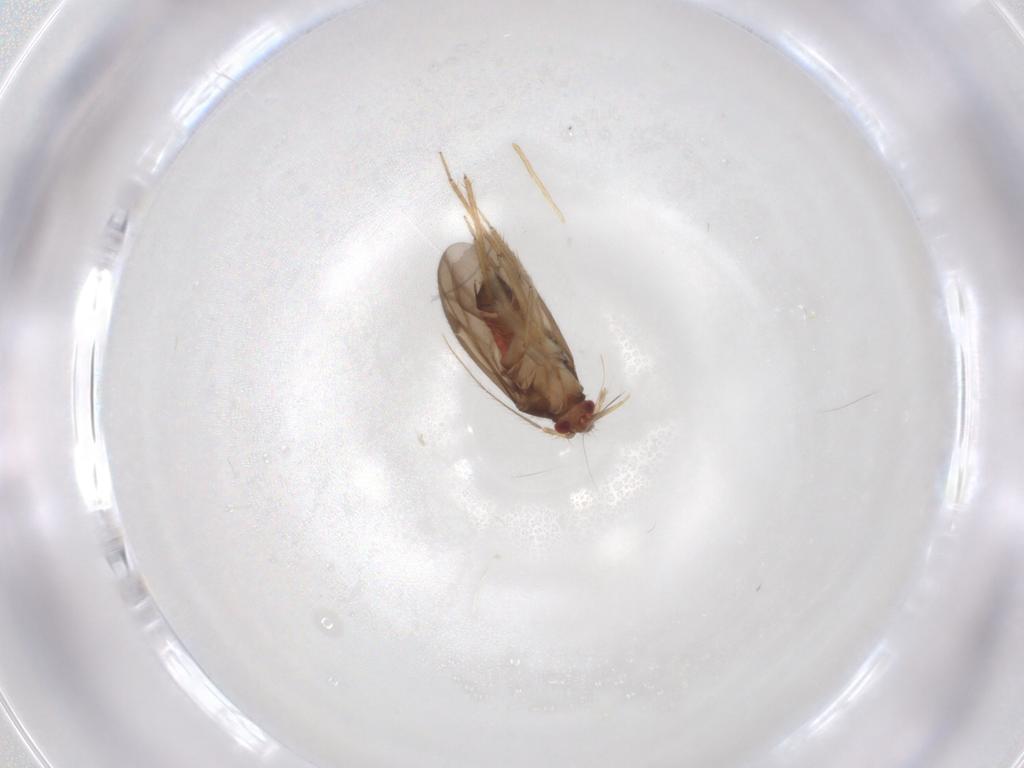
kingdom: Animalia
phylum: Arthropoda
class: Insecta
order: Hemiptera
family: Ceratocombidae
